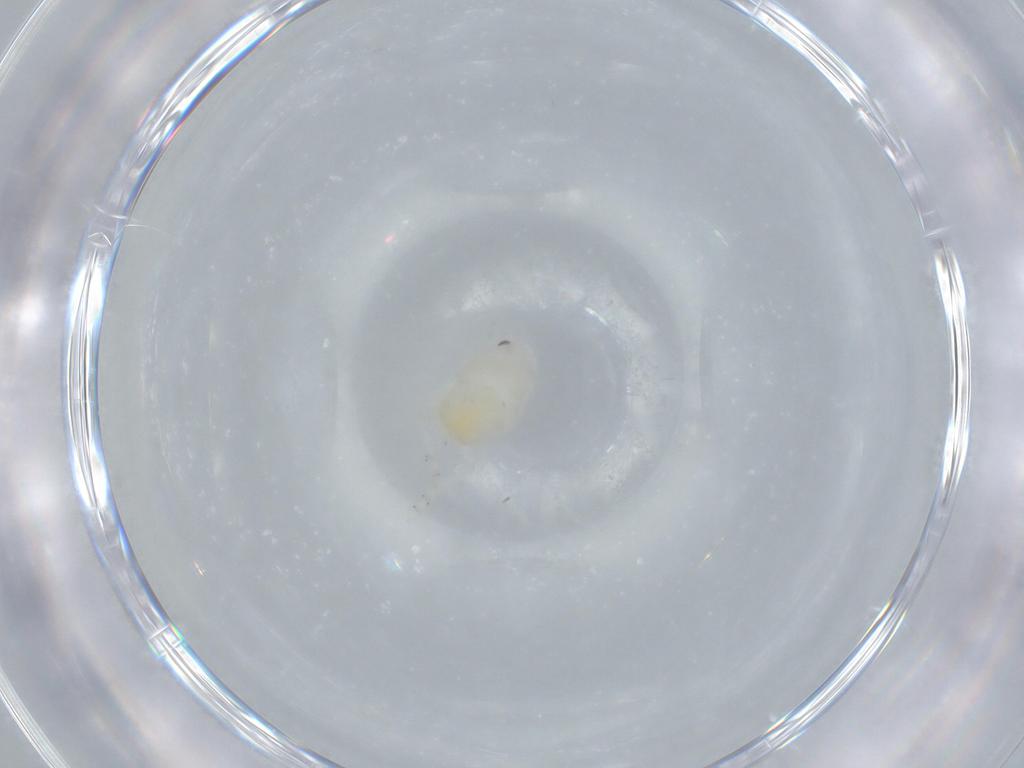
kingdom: Animalia
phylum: Arthropoda
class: Insecta
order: Hemiptera
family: Flatidae
